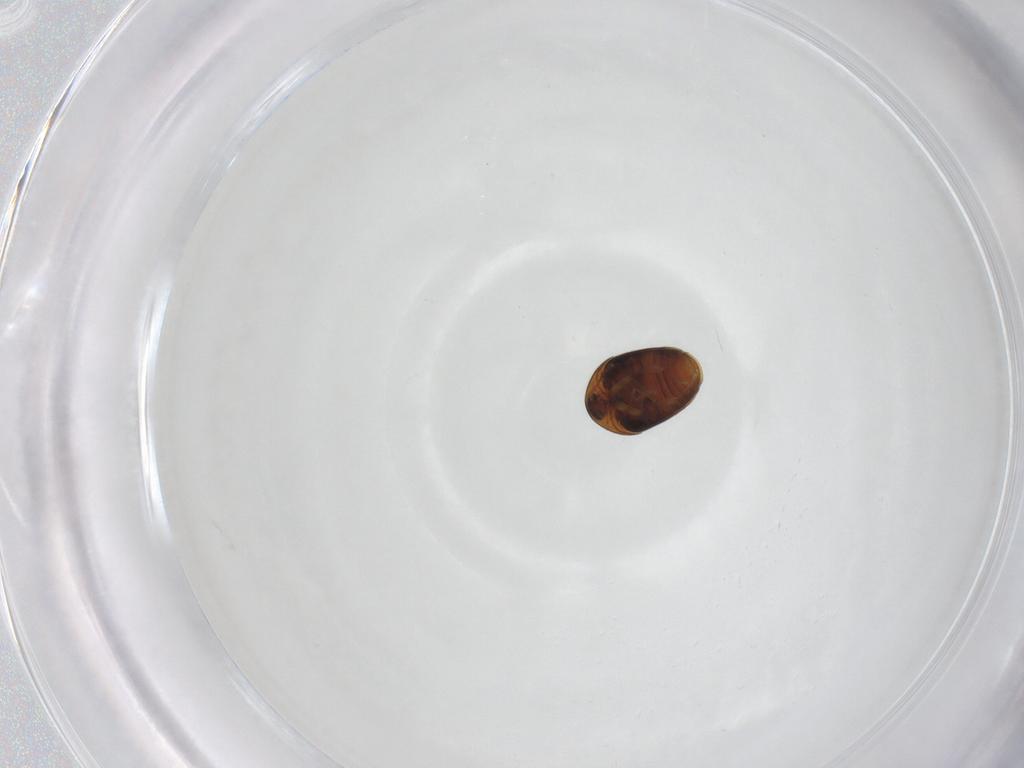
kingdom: Animalia
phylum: Arthropoda
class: Insecta
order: Coleoptera
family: Corylophidae
